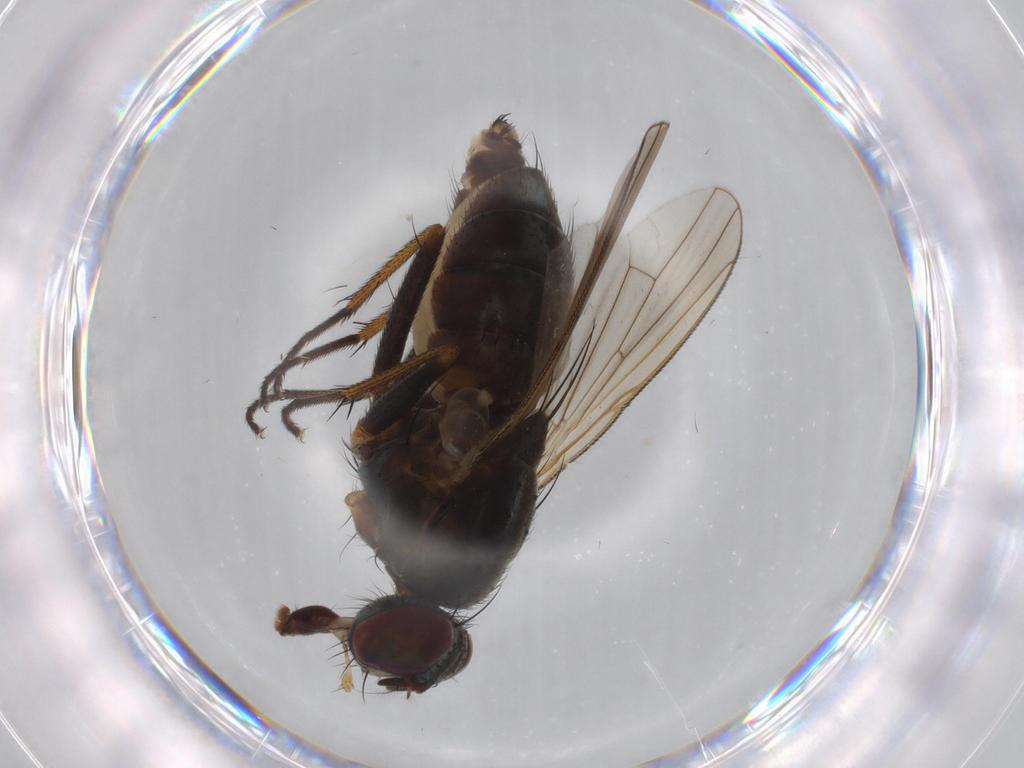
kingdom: Animalia
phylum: Arthropoda
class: Insecta
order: Diptera
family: Muscidae
